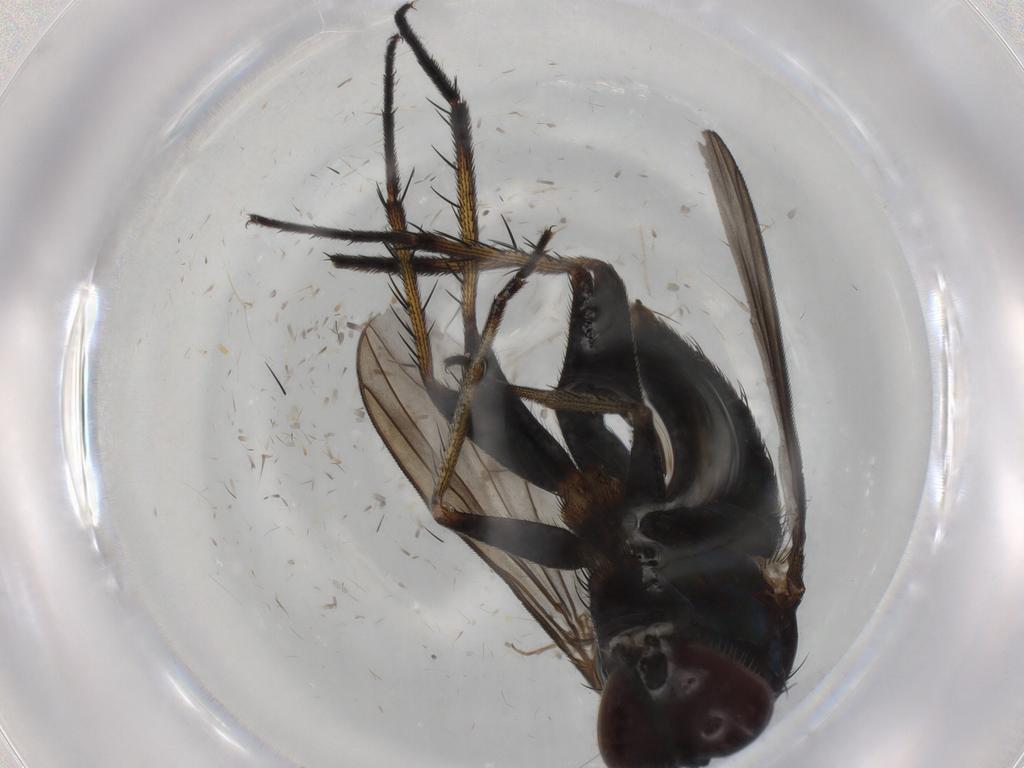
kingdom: Animalia
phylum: Arthropoda
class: Insecta
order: Diptera
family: Dolichopodidae
